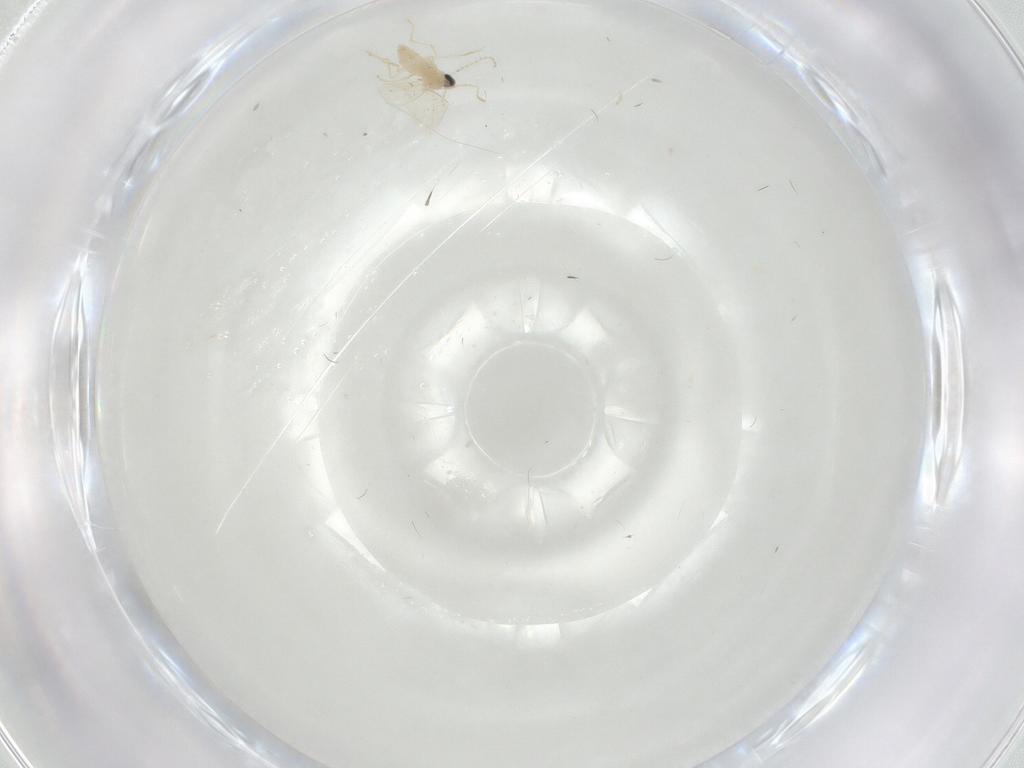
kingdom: Animalia
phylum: Arthropoda
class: Insecta
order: Diptera
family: Cecidomyiidae
